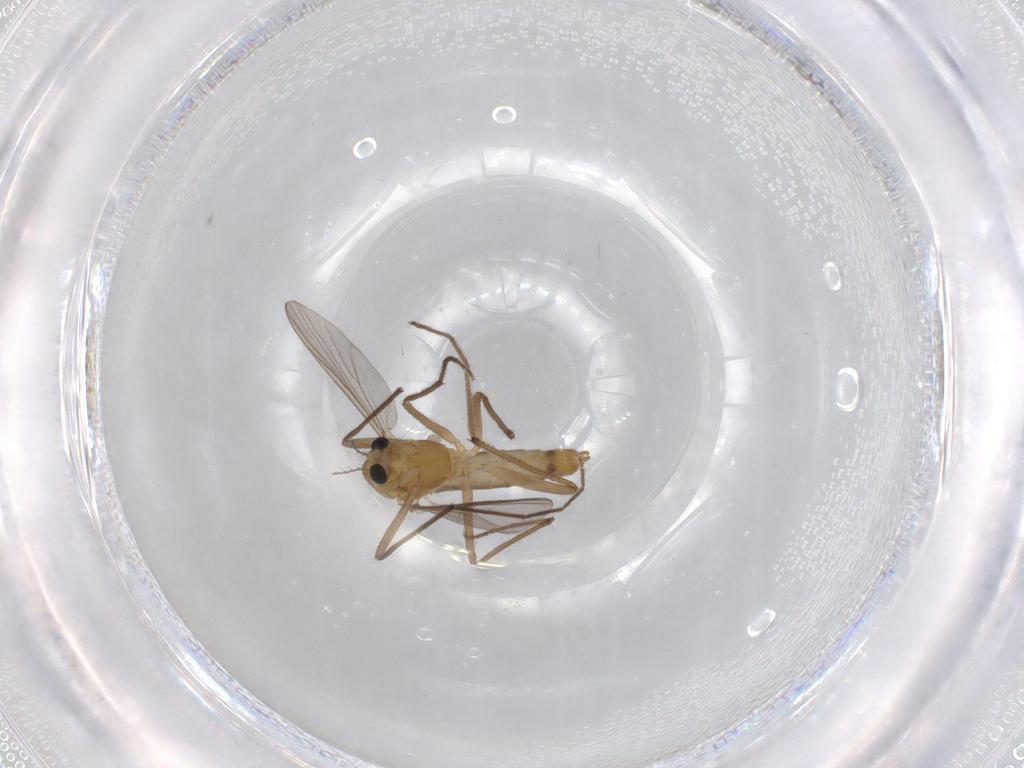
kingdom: Animalia
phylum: Arthropoda
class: Insecta
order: Diptera
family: Chironomidae
